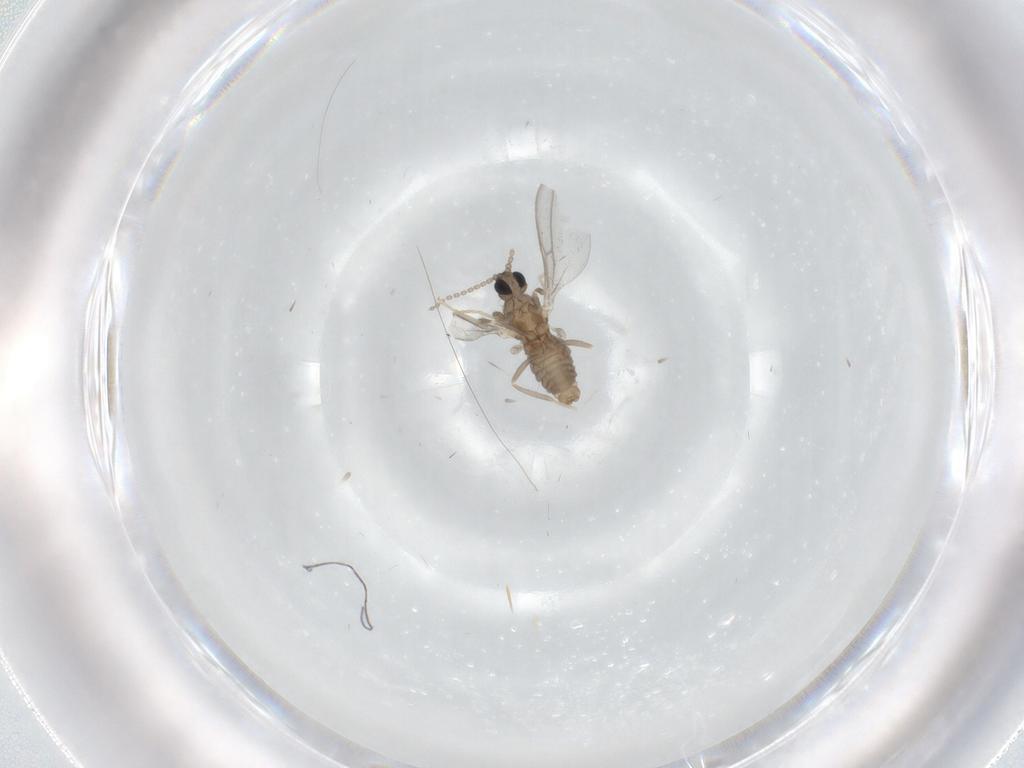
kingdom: Animalia
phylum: Arthropoda
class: Insecta
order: Diptera
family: Cecidomyiidae
